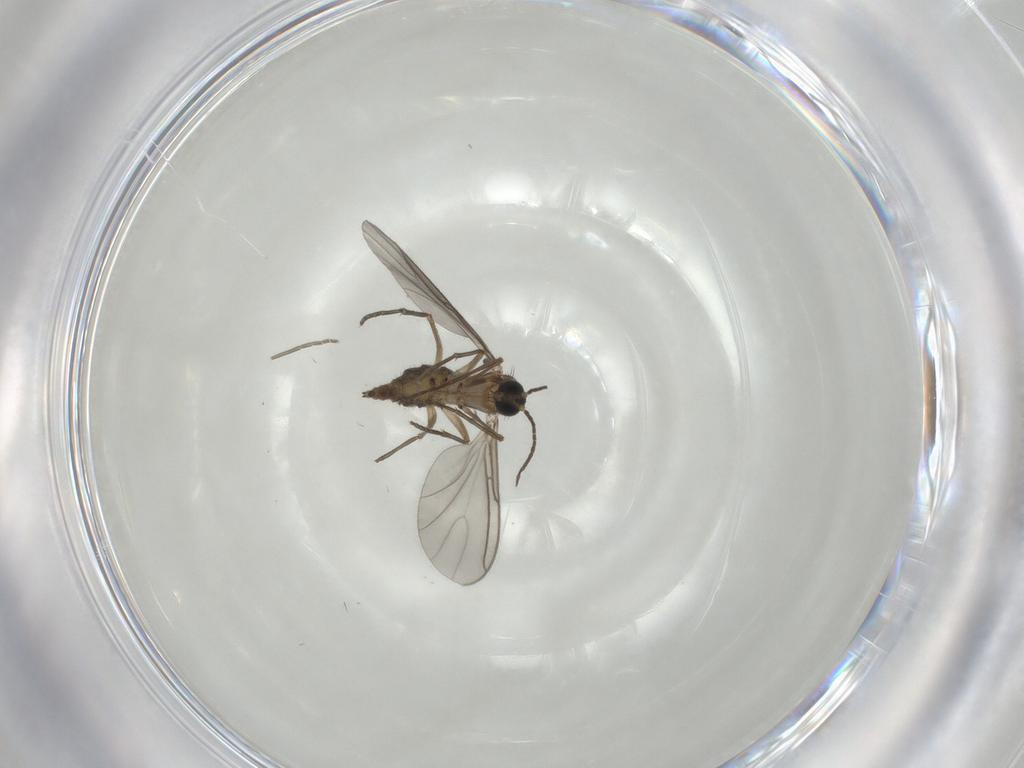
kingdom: Animalia
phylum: Arthropoda
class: Insecta
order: Diptera
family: Sciaridae
